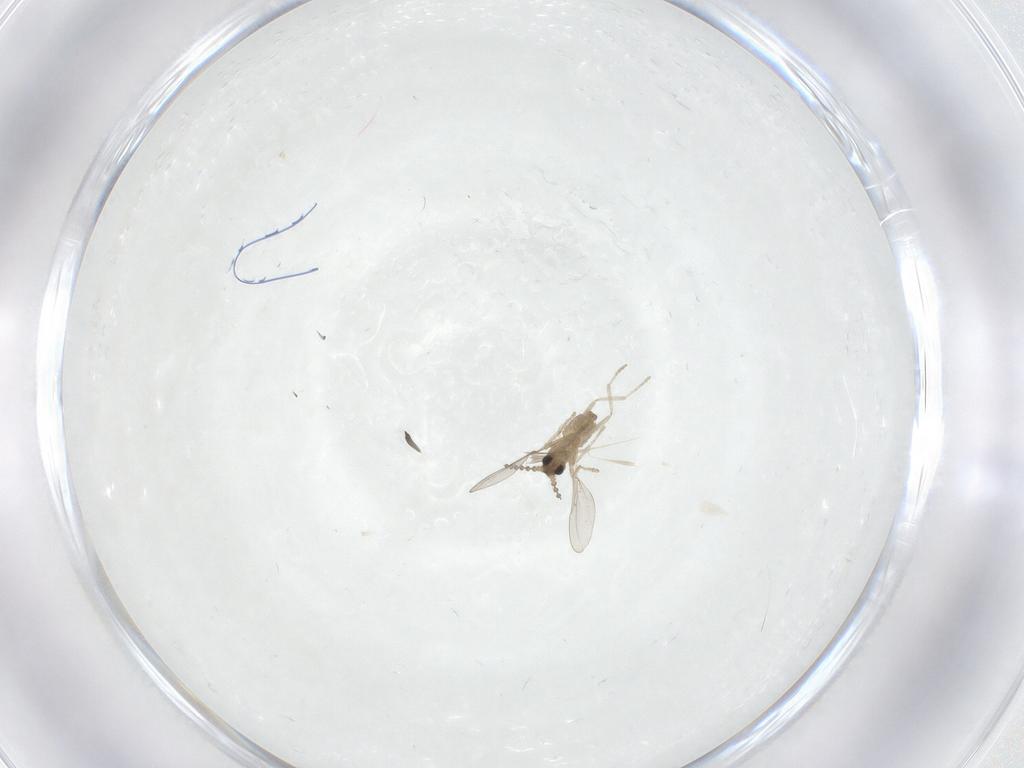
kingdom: Animalia
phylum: Arthropoda
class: Insecta
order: Diptera
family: Cecidomyiidae
